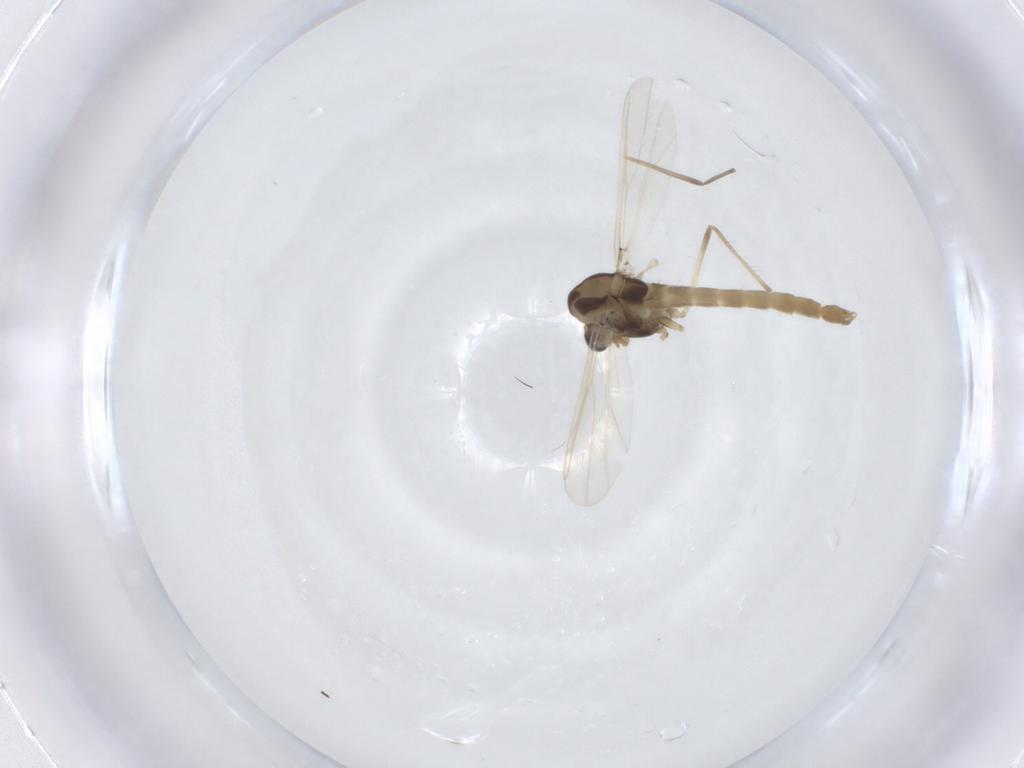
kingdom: Animalia
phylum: Arthropoda
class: Insecta
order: Diptera
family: Chironomidae
